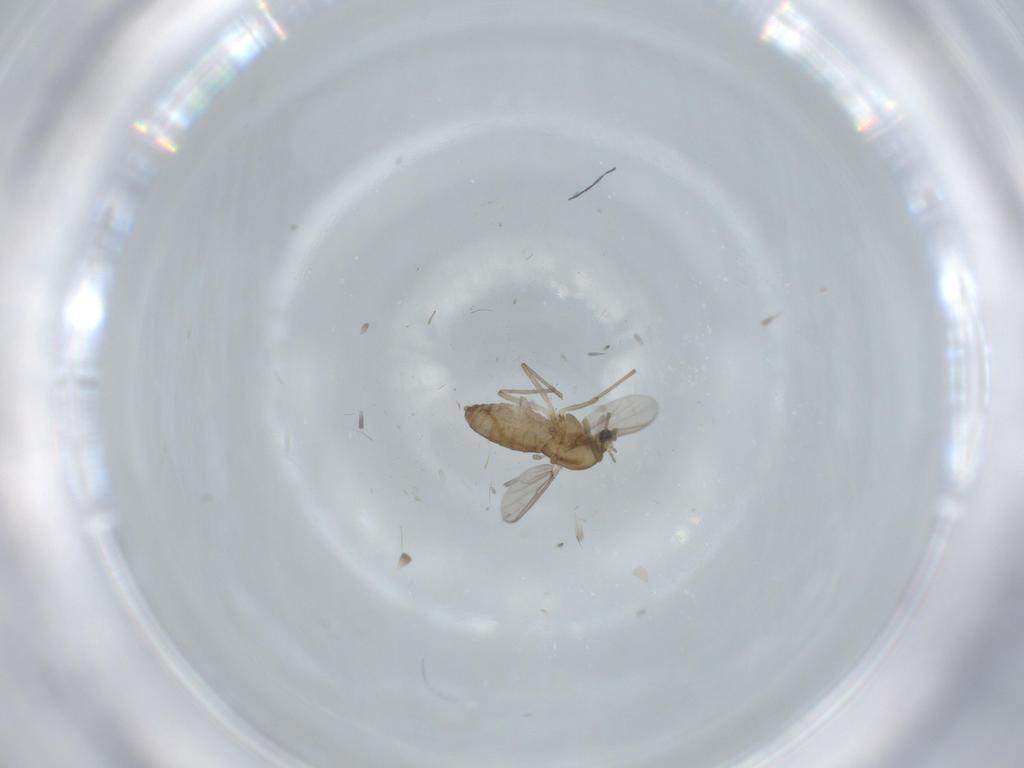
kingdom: Animalia
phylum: Arthropoda
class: Insecta
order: Diptera
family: Chironomidae
